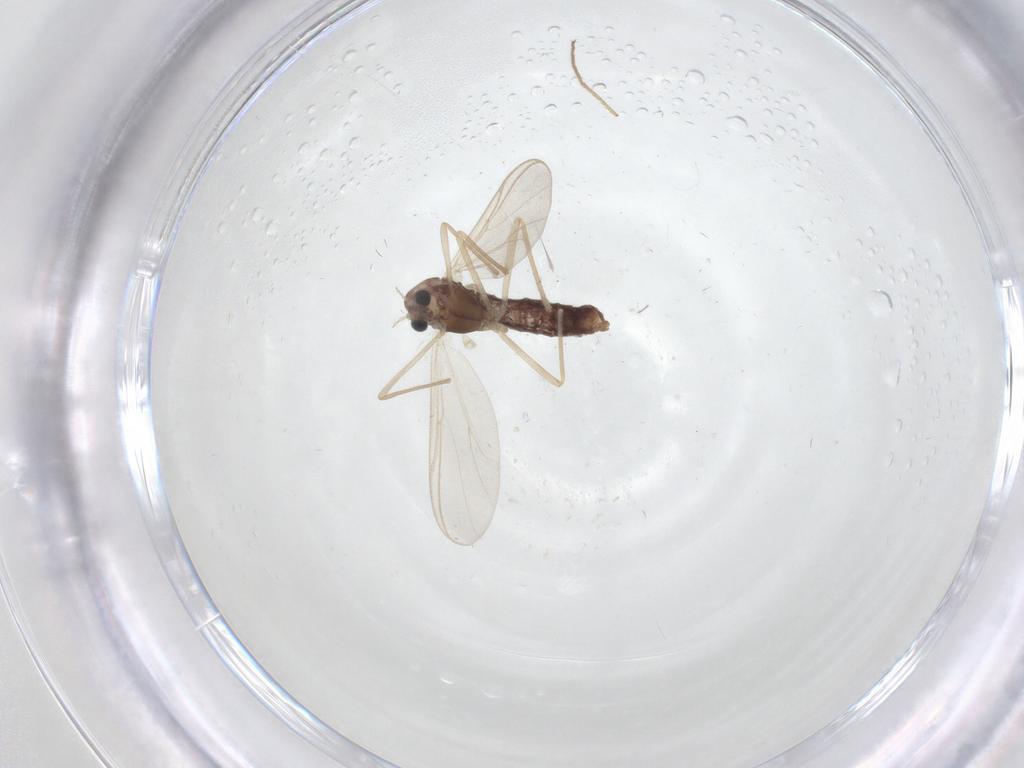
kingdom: Animalia
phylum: Arthropoda
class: Insecta
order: Diptera
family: Chironomidae
